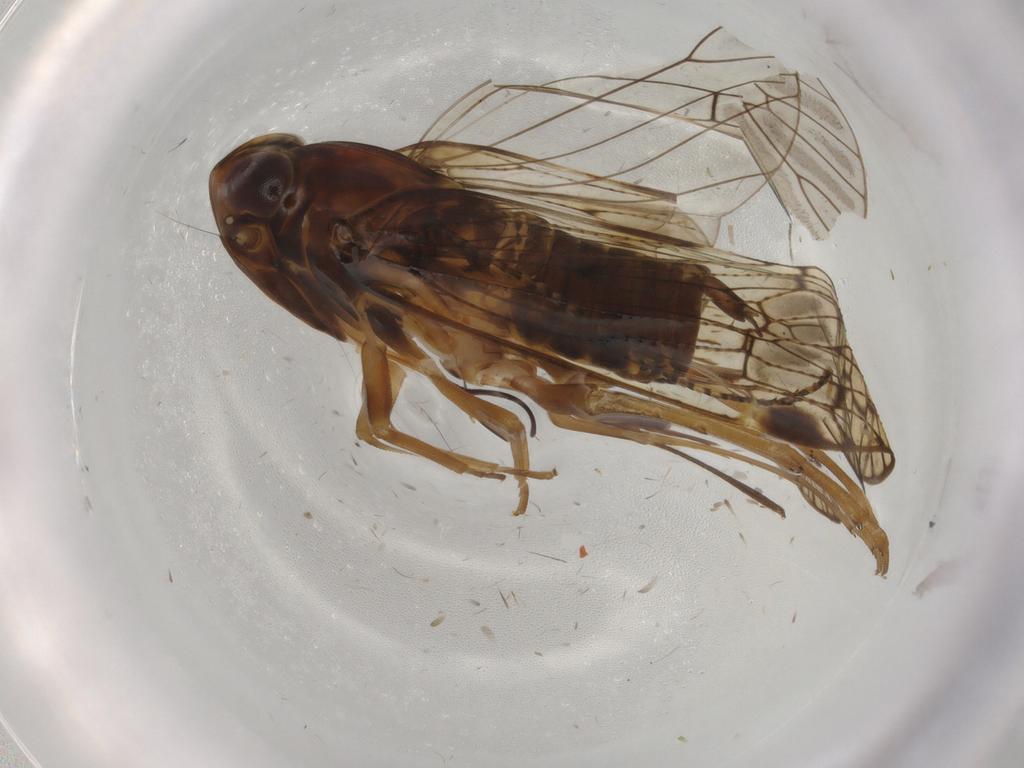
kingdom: Animalia
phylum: Arthropoda
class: Insecta
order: Hemiptera
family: Cixiidae
